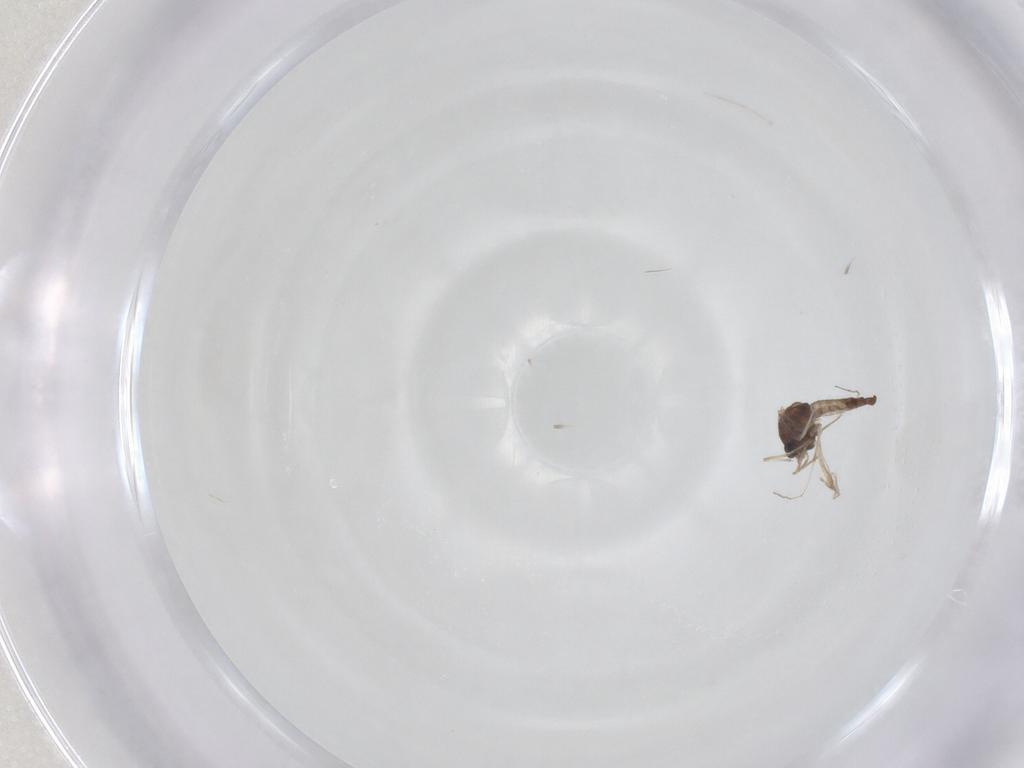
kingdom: Animalia
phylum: Arthropoda
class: Insecta
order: Diptera
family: Chironomidae
